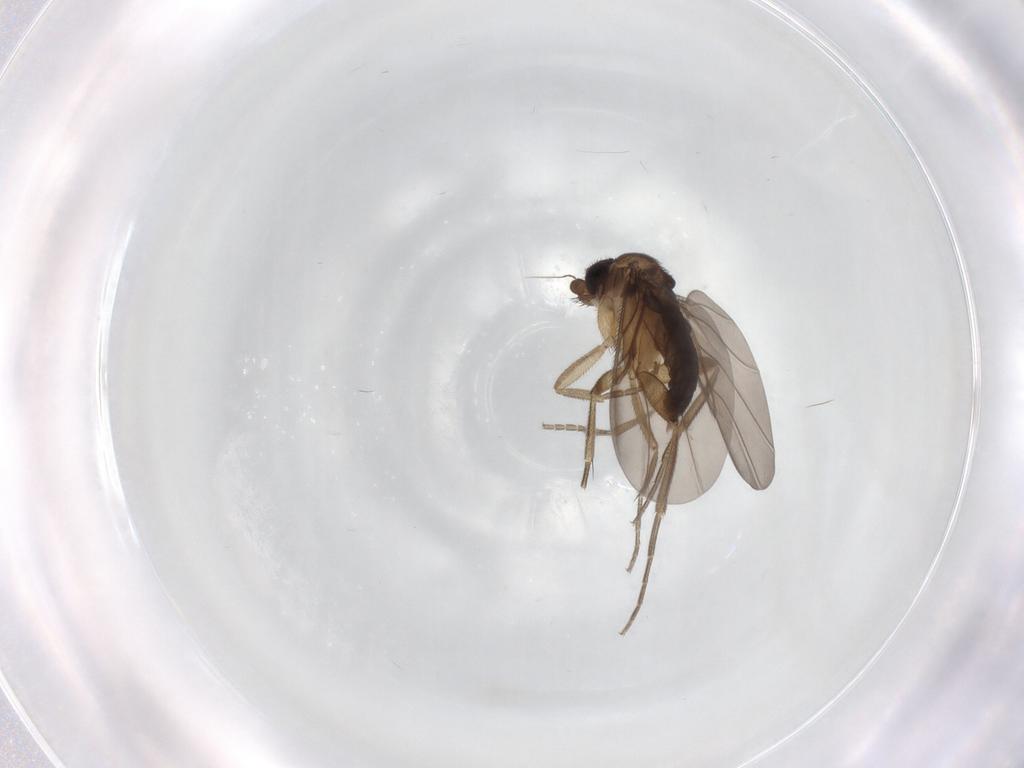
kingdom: Animalia
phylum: Arthropoda
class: Insecta
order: Diptera
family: Phoridae
